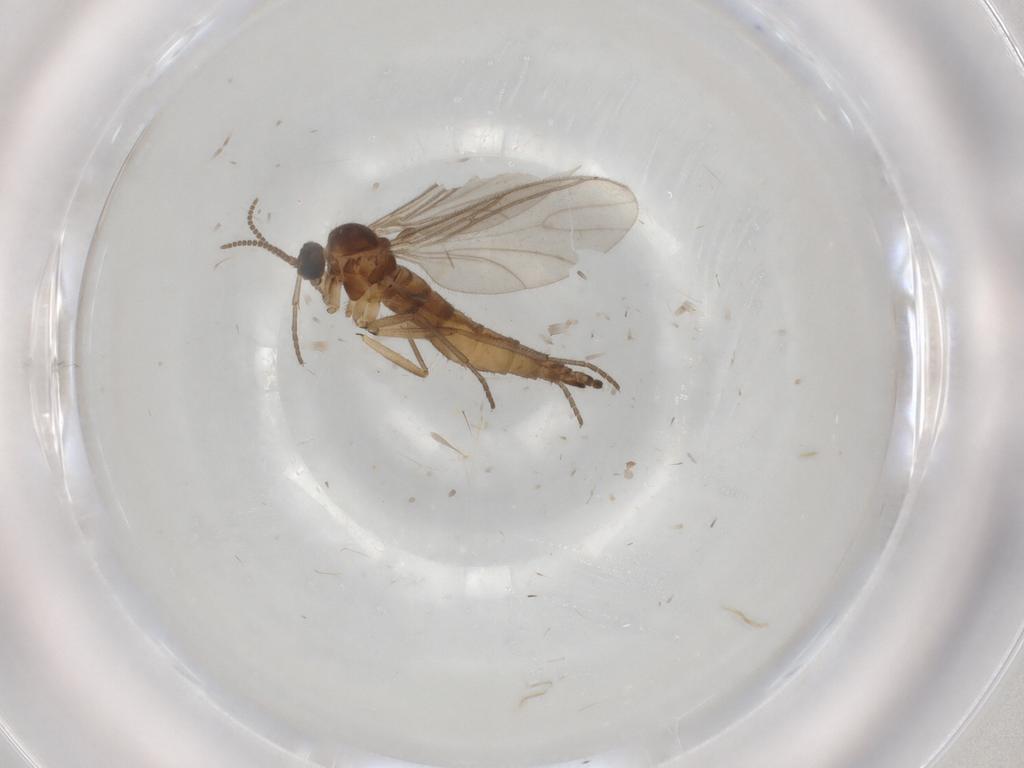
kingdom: Animalia
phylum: Arthropoda
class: Insecta
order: Diptera
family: Sciaridae
